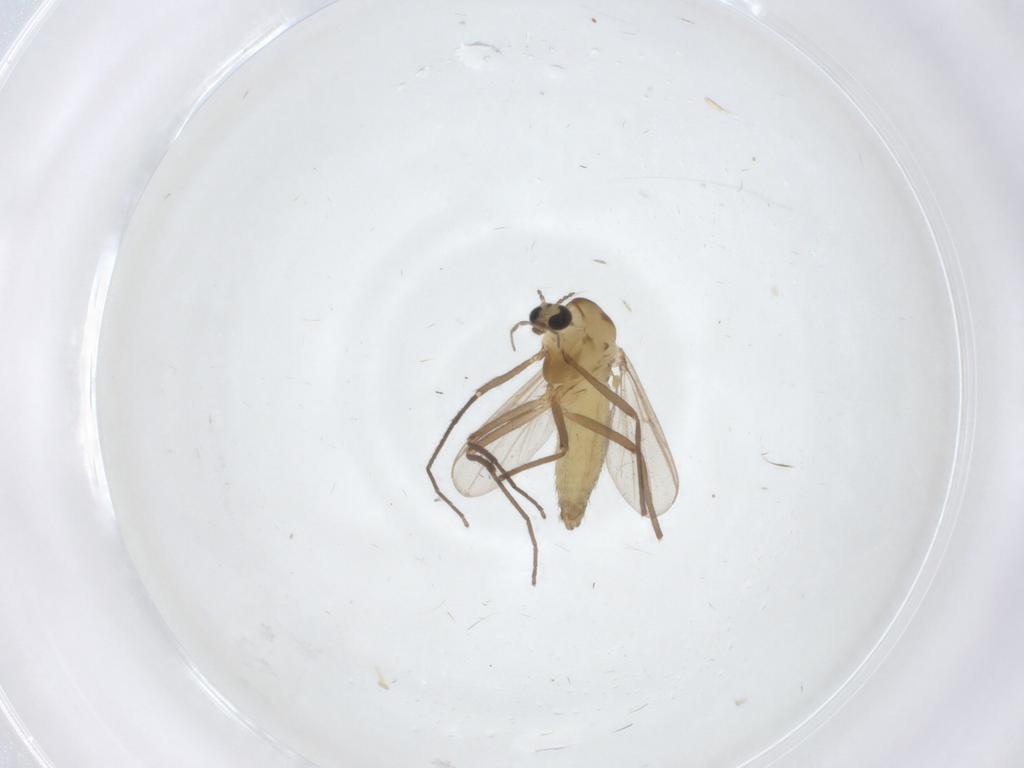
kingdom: Animalia
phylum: Arthropoda
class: Insecta
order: Diptera
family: Chironomidae
